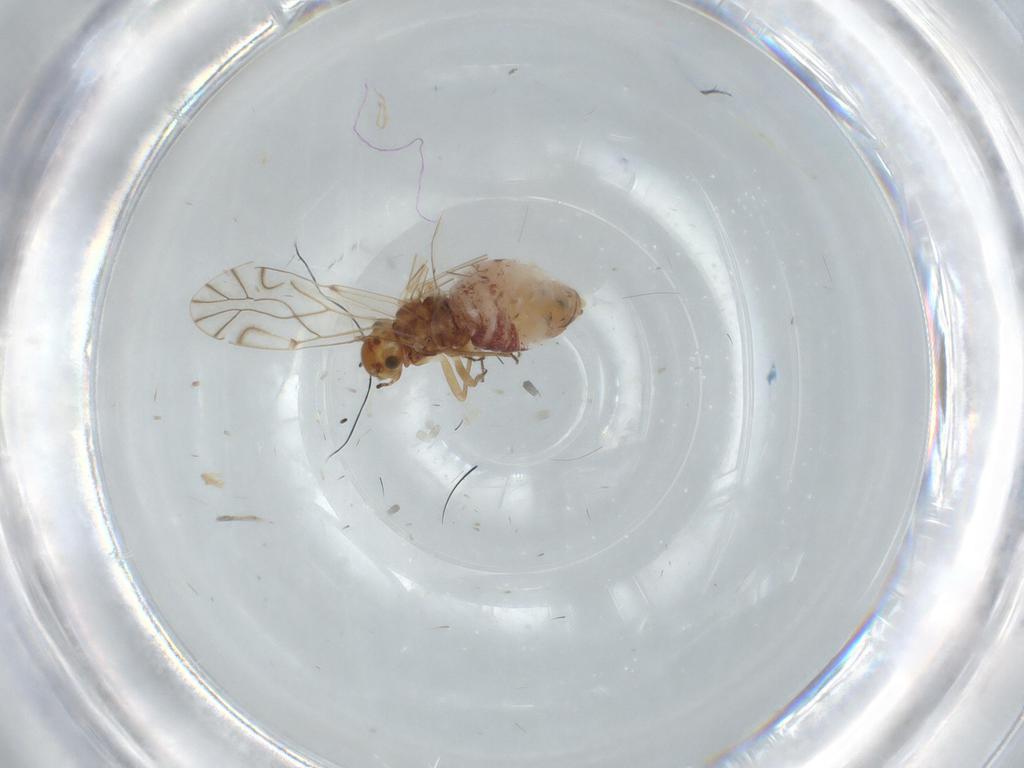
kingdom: Animalia
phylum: Arthropoda
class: Insecta
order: Psocodea
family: Lachesillidae
